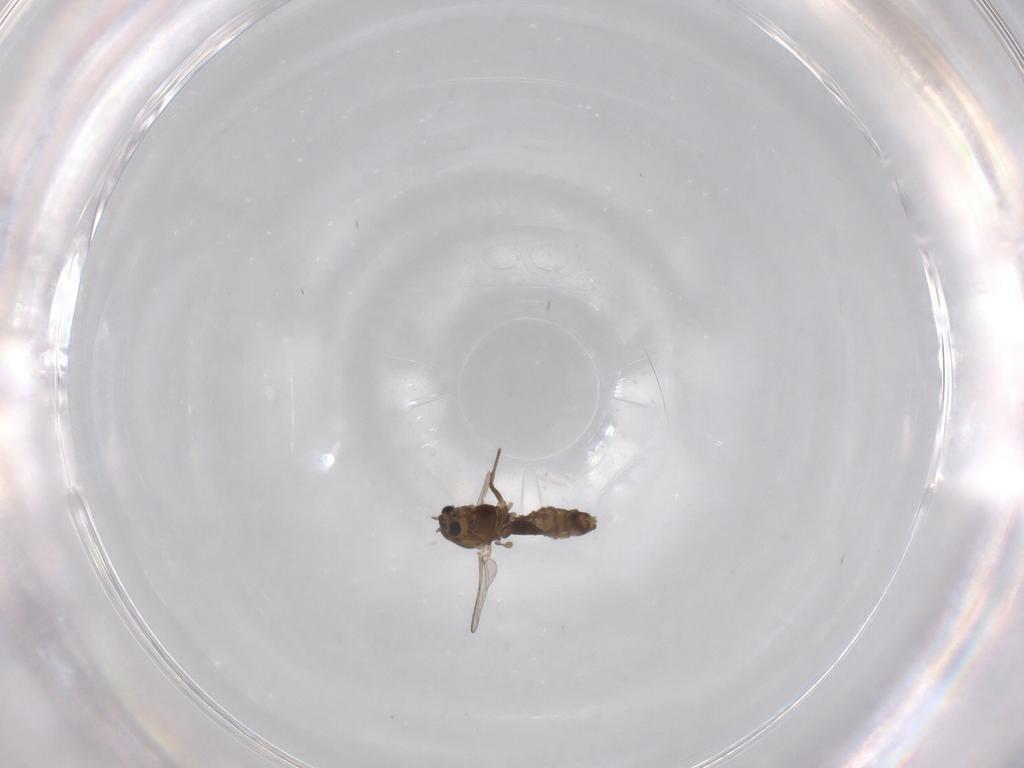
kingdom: Animalia
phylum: Arthropoda
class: Insecta
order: Diptera
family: Chironomidae
